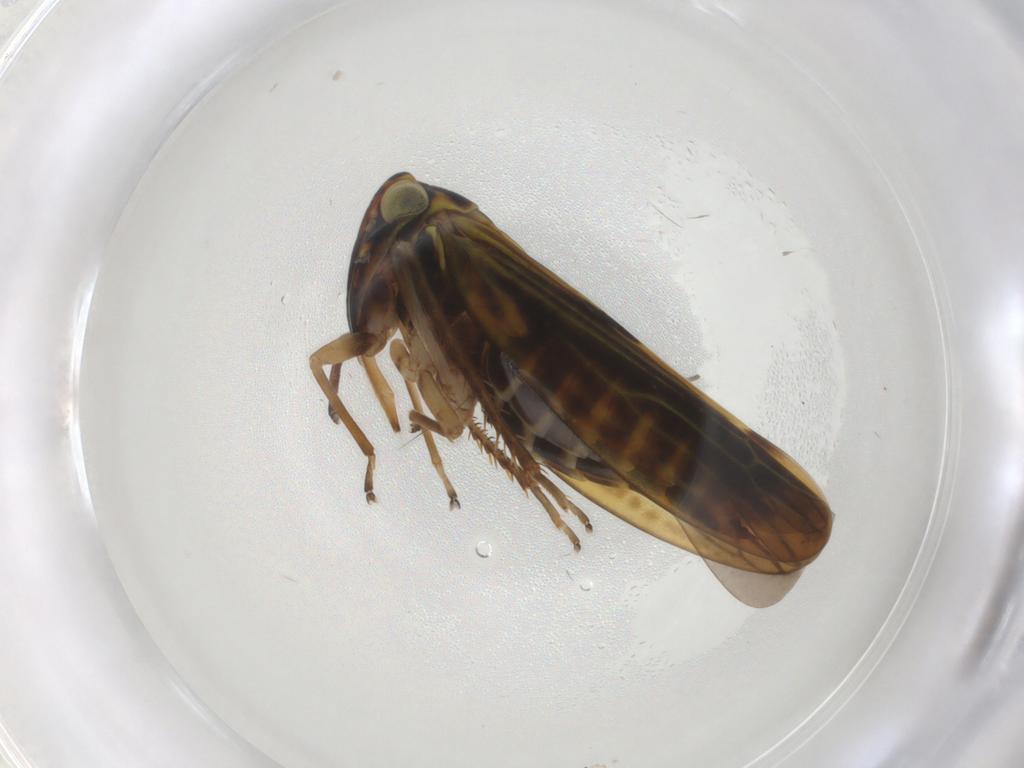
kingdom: Animalia
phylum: Arthropoda
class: Insecta
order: Hemiptera
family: Cicadellidae
